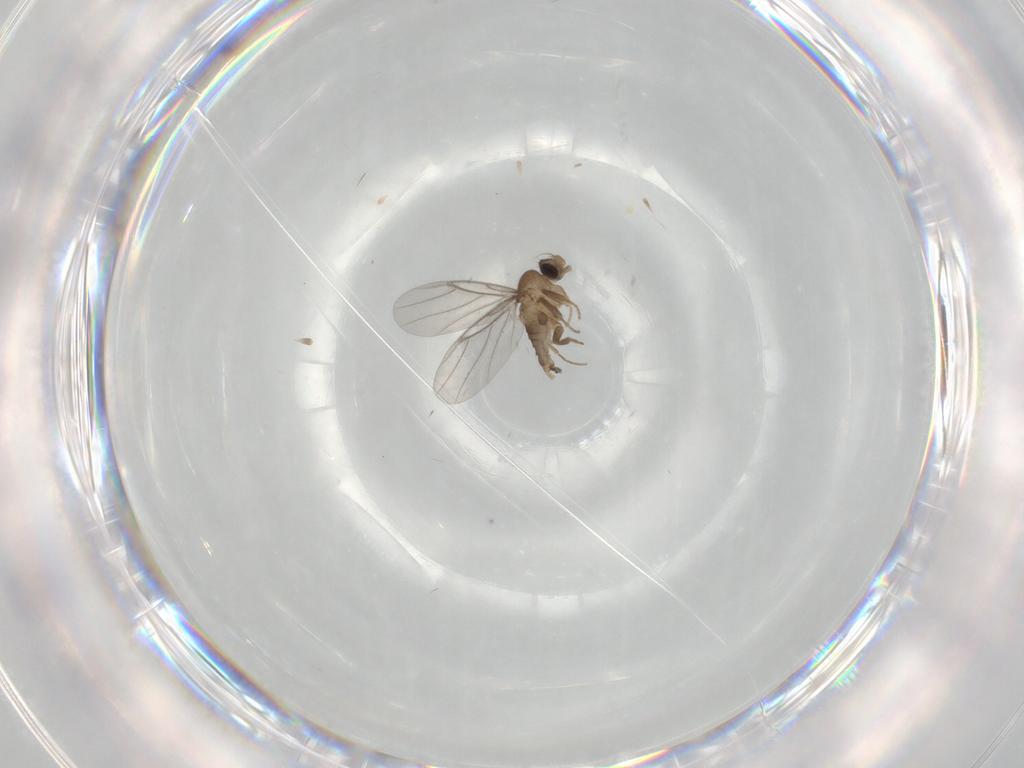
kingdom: Animalia
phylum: Arthropoda
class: Insecta
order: Diptera
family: Cecidomyiidae
